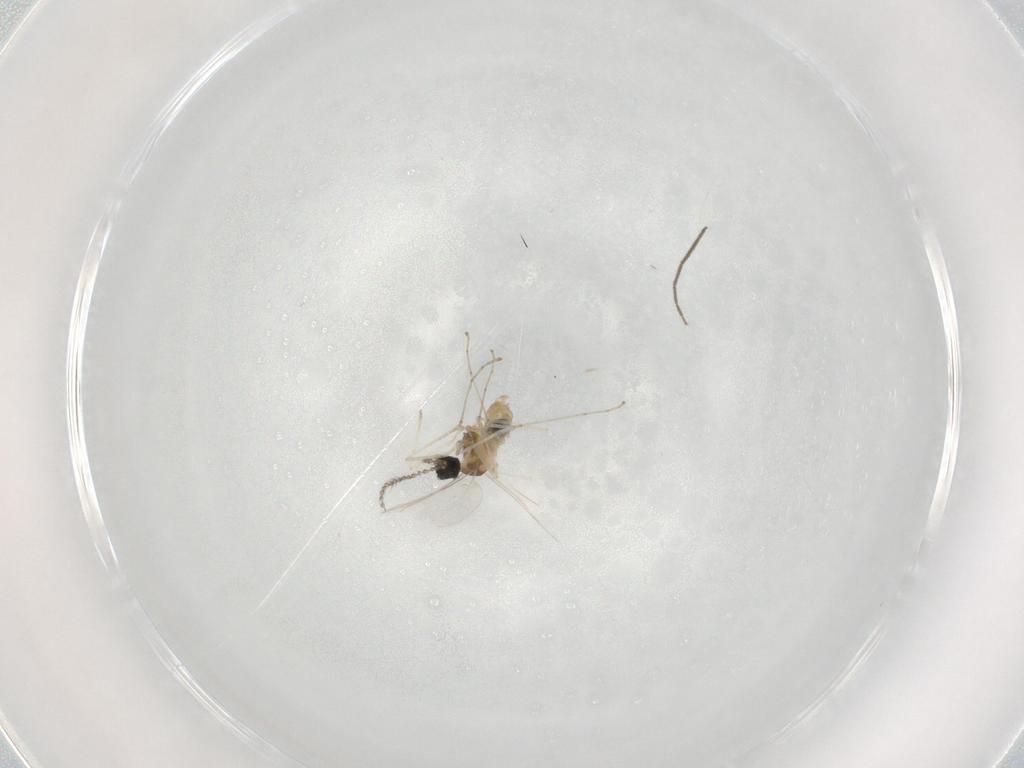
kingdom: Animalia
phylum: Arthropoda
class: Insecta
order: Diptera
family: Cecidomyiidae
